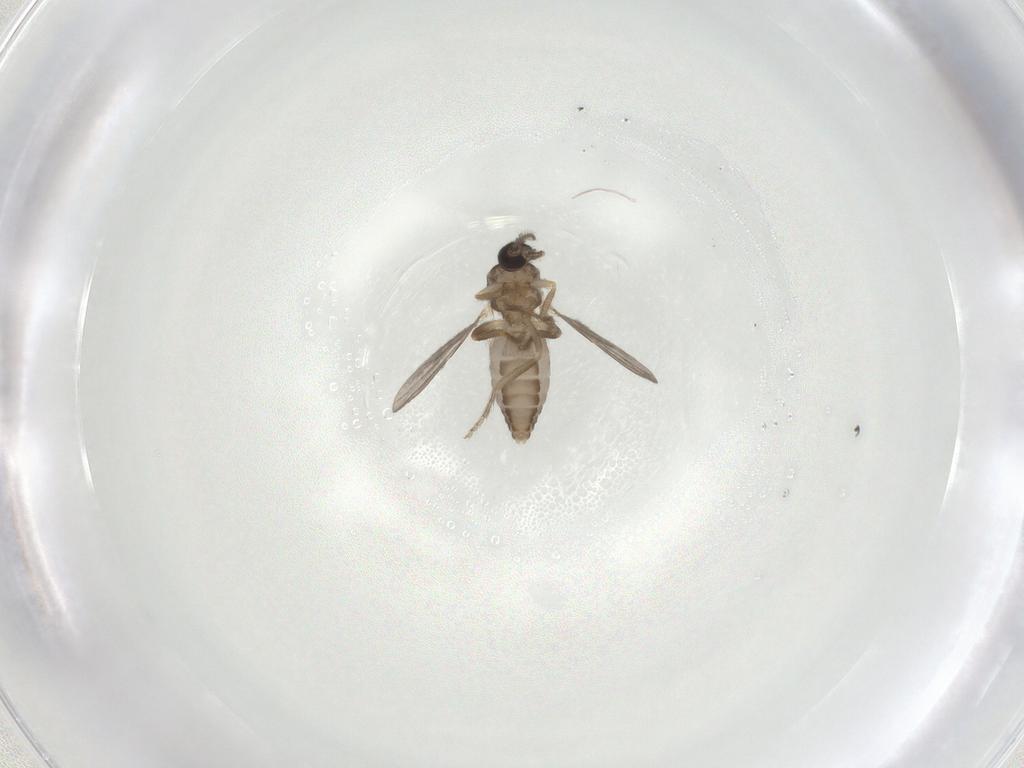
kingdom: Animalia
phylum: Arthropoda
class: Insecta
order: Diptera
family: Ceratopogonidae
